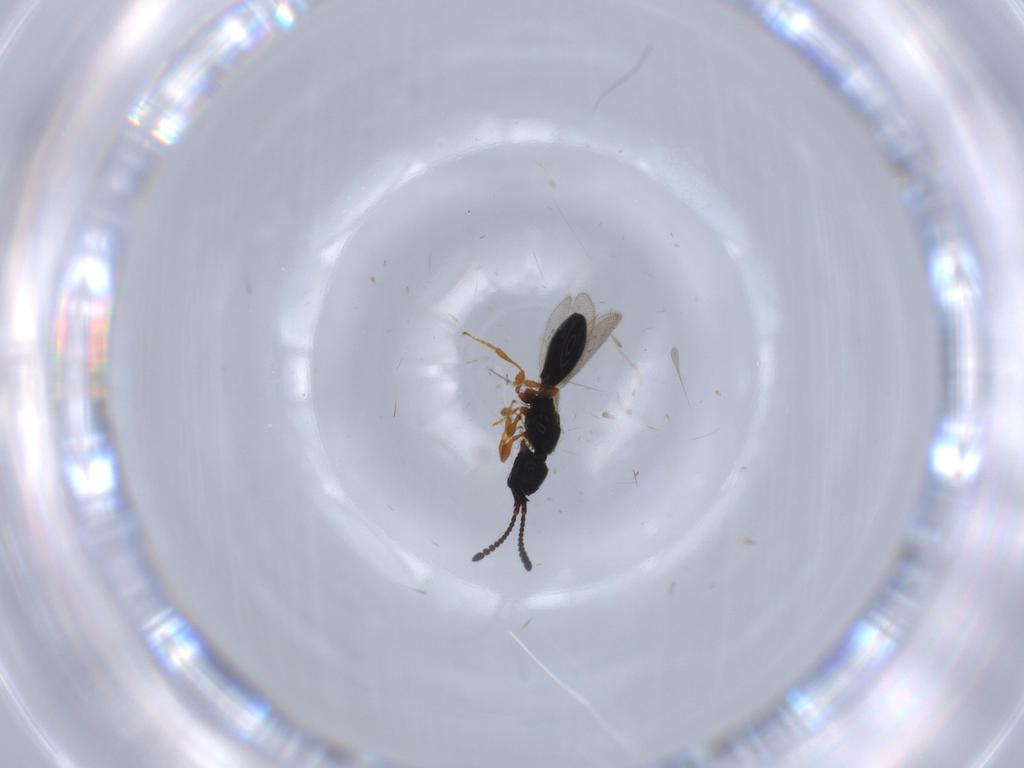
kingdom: Animalia
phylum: Arthropoda
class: Insecta
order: Hymenoptera
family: Diapriidae
